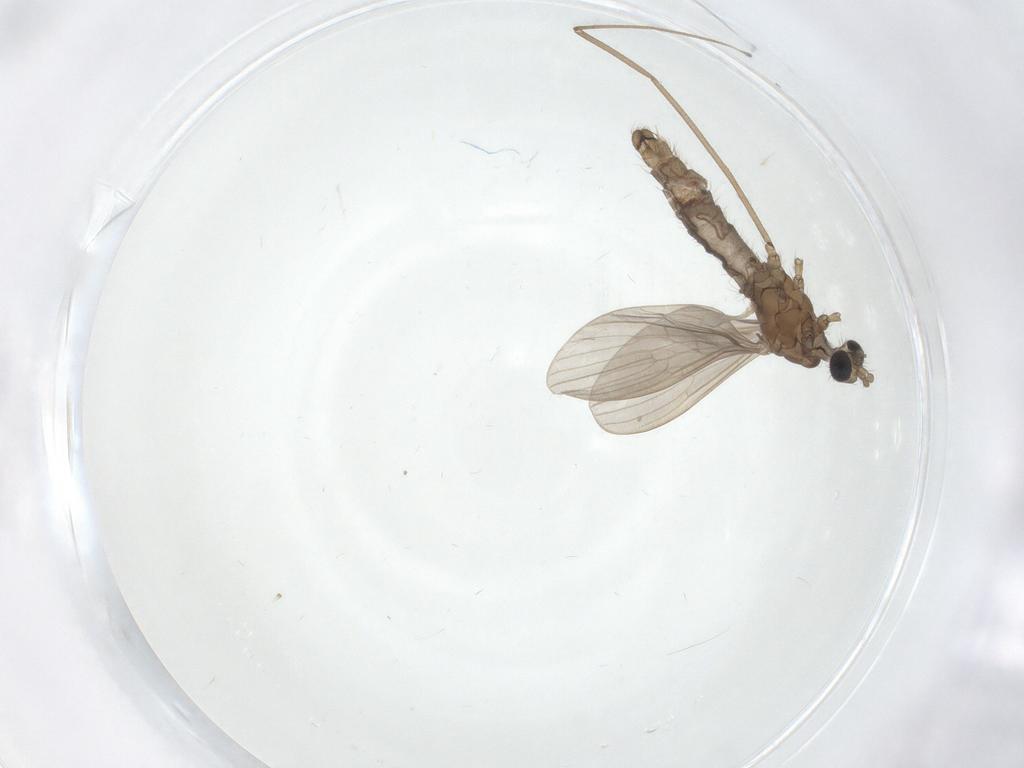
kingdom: Animalia
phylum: Arthropoda
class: Insecta
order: Diptera
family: Limoniidae
